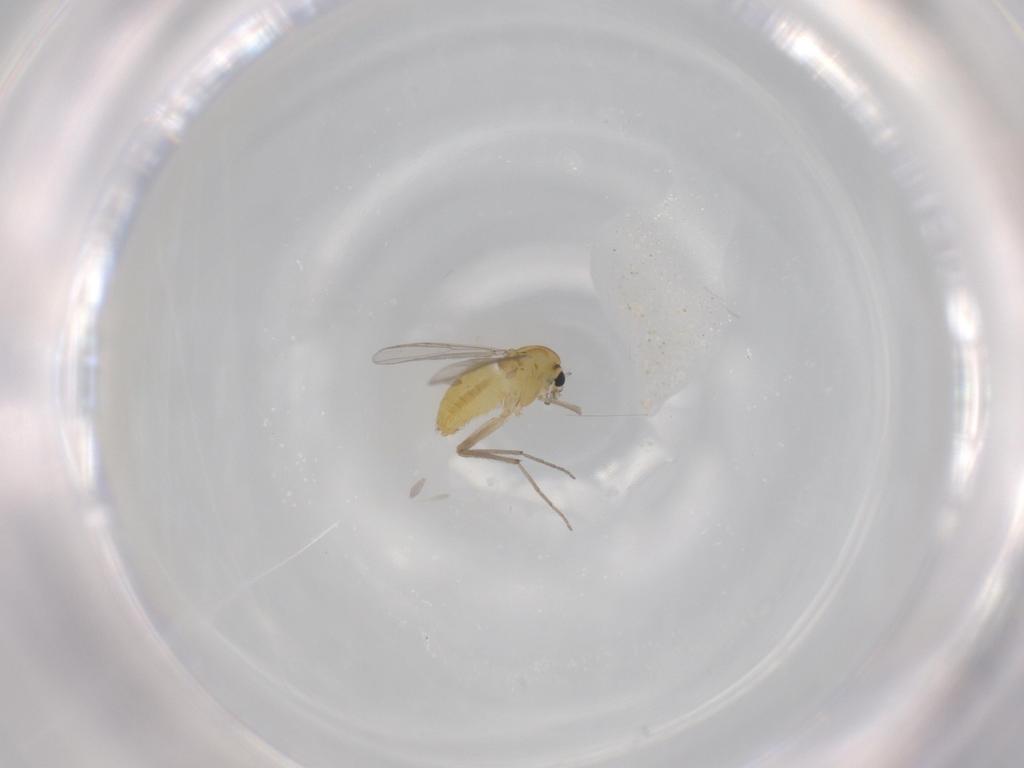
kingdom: Animalia
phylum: Arthropoda
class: Insecta
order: Diptera
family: Chironomidae
